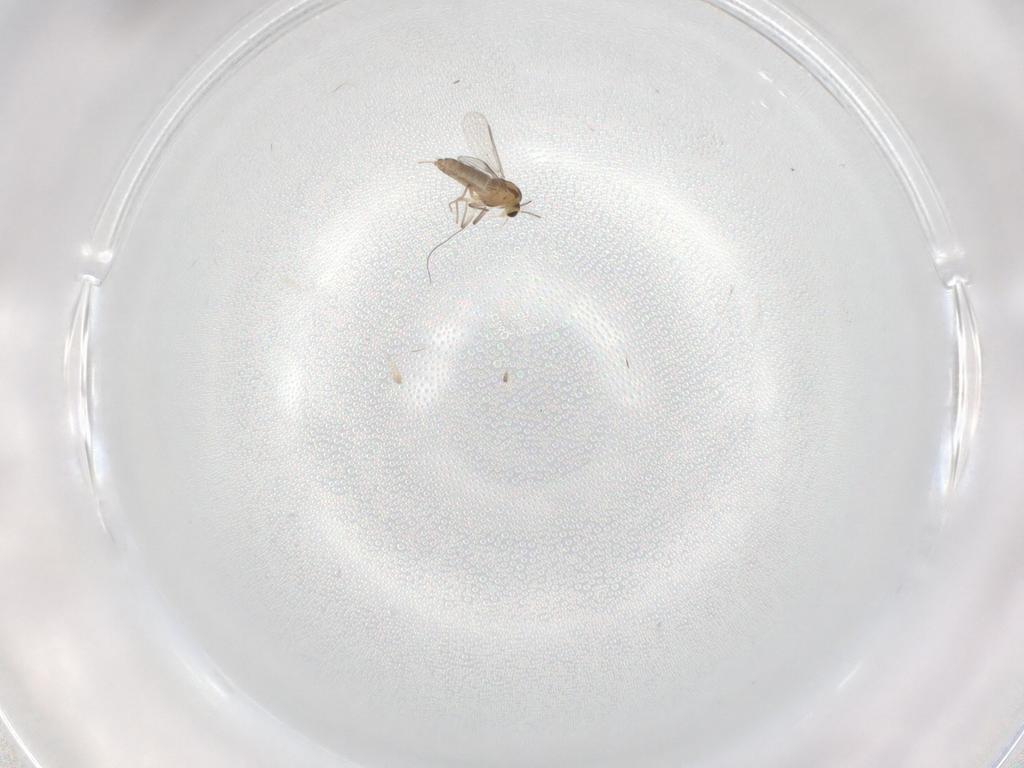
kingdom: Animalia
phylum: Arthropoda
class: Insecta
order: Diptera
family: Chironomidae
